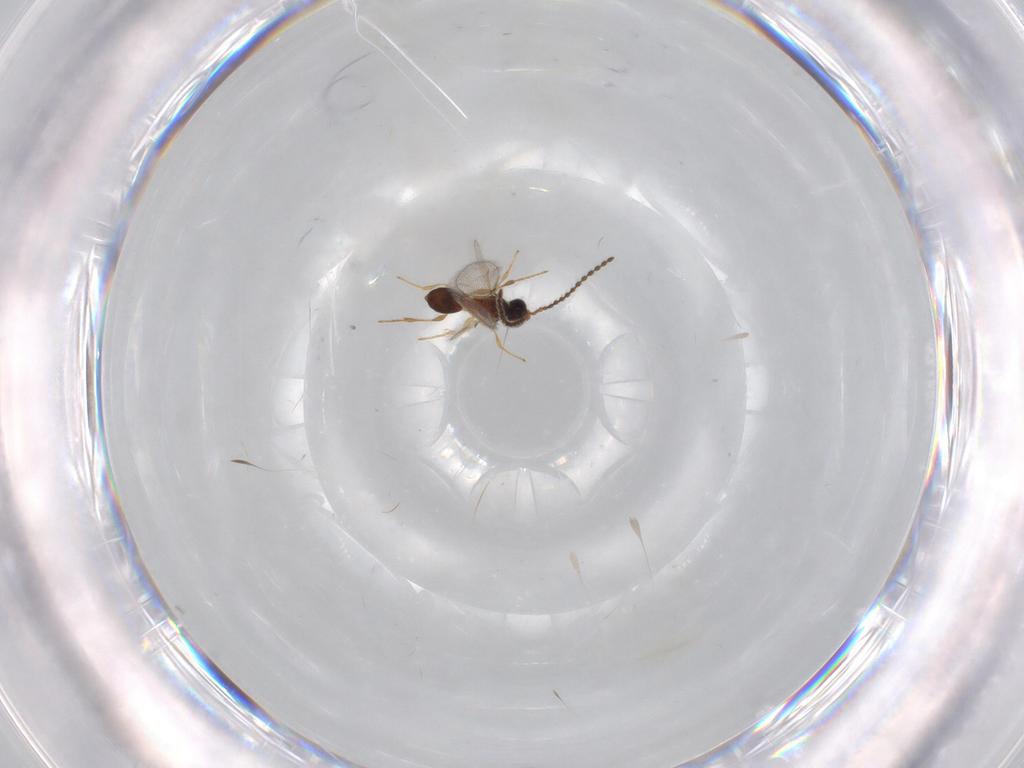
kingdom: Animalia
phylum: Arthropoda
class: Insecta
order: Hymenoptera
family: Diapriidae
